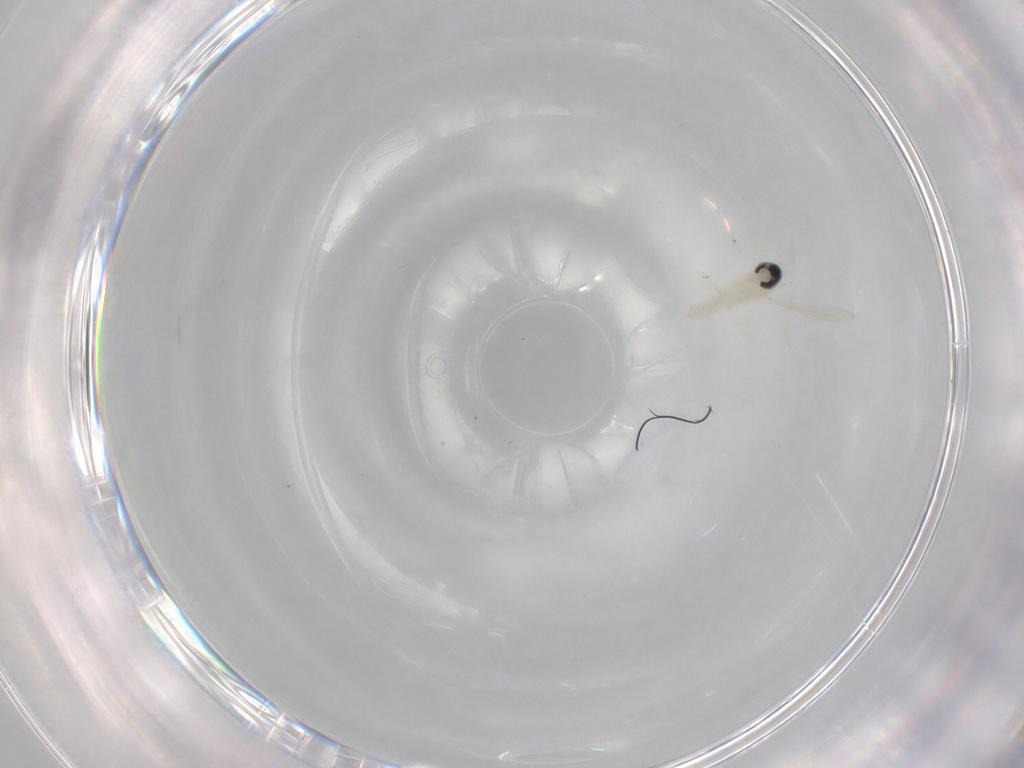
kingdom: Animalia
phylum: Arthropoda
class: Insecta
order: Diptera
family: Cecidomyiidae
